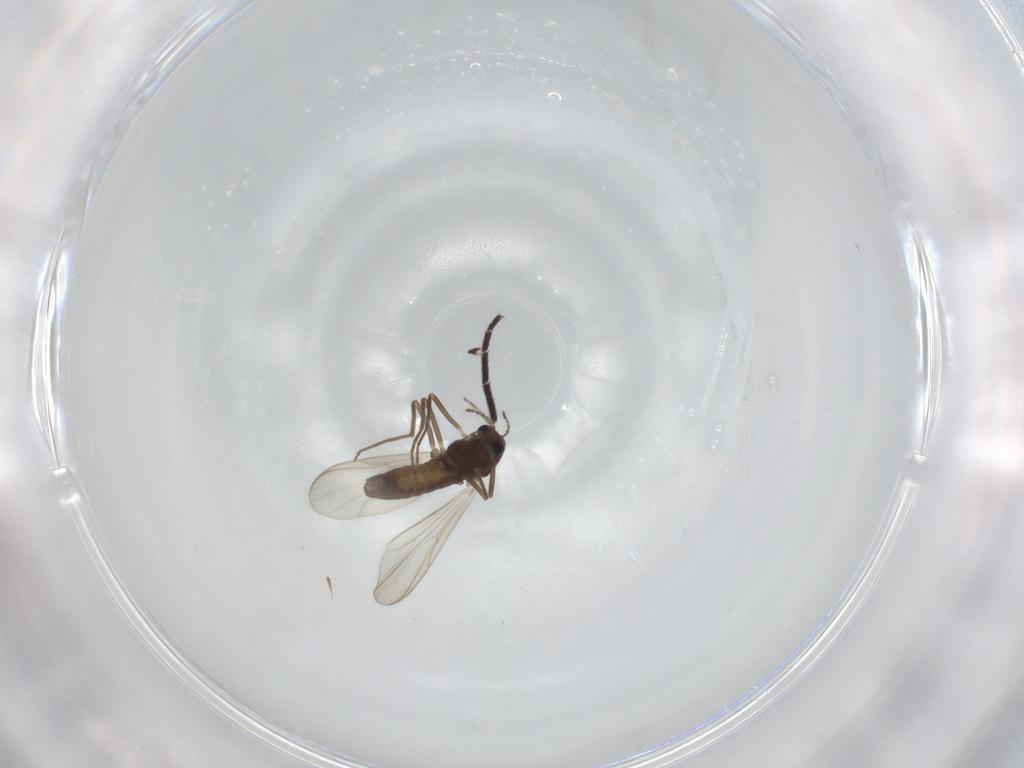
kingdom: Animalia
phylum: Arthropoda
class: Insecta
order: Diptera
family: Chironomidae
